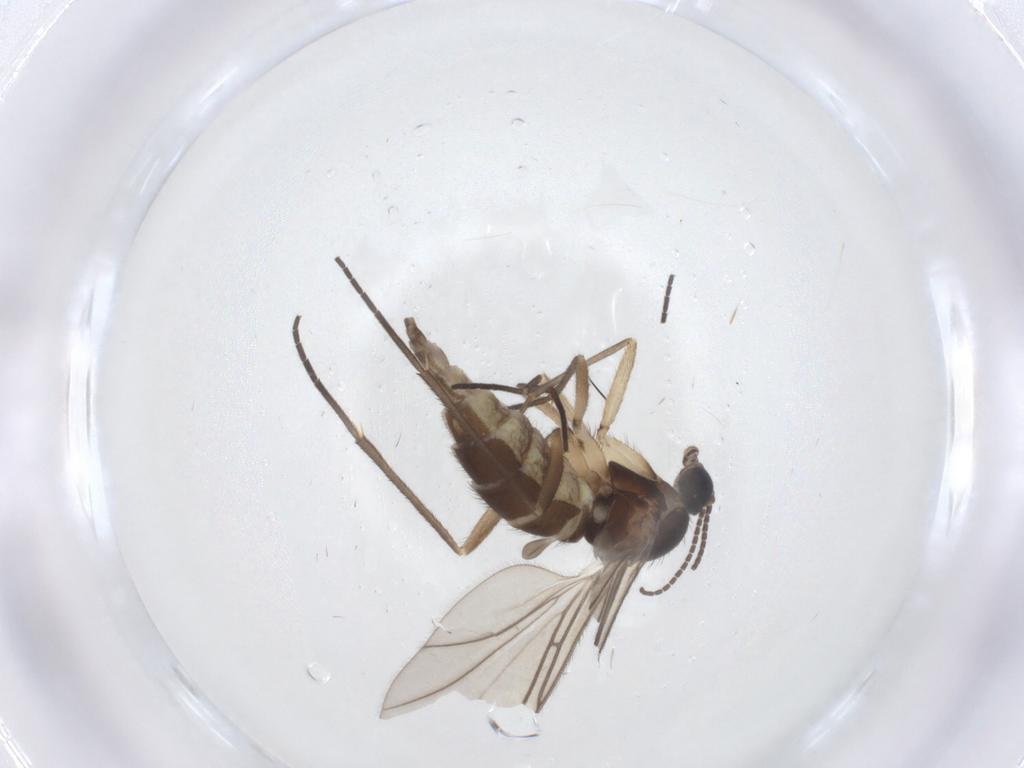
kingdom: Animalia
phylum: Arthropoda
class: Insecta
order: Diptera
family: Sciaridae
